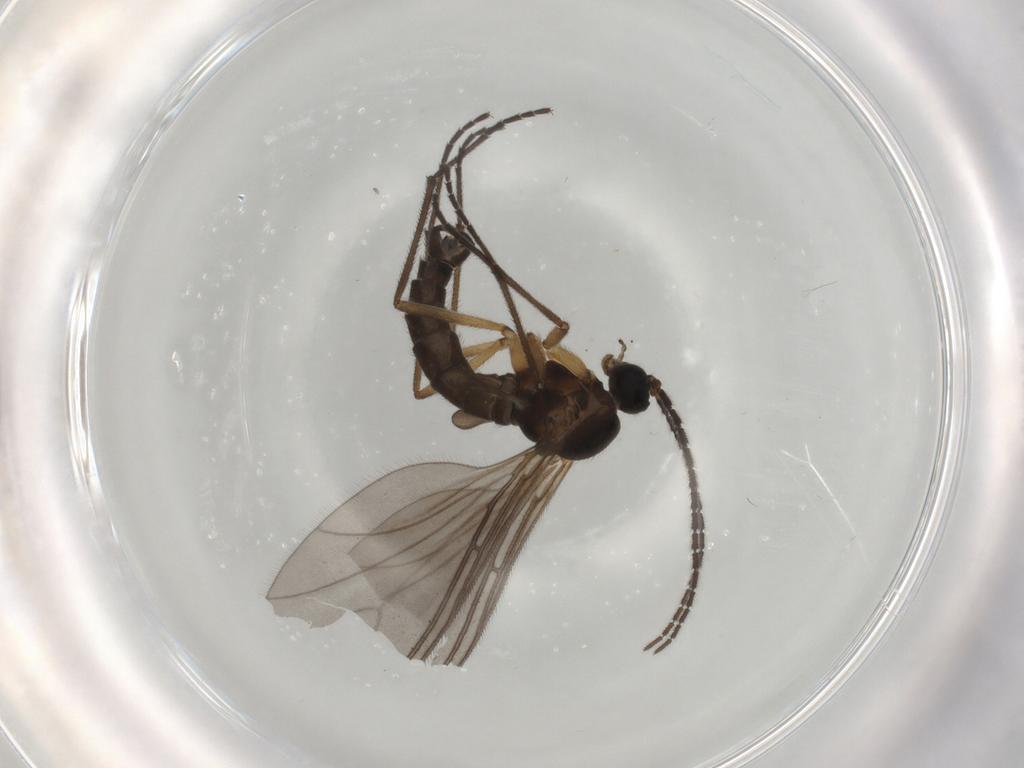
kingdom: Animalia
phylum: Arthropoda
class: Insecta
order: Diptera
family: Sciaridae
